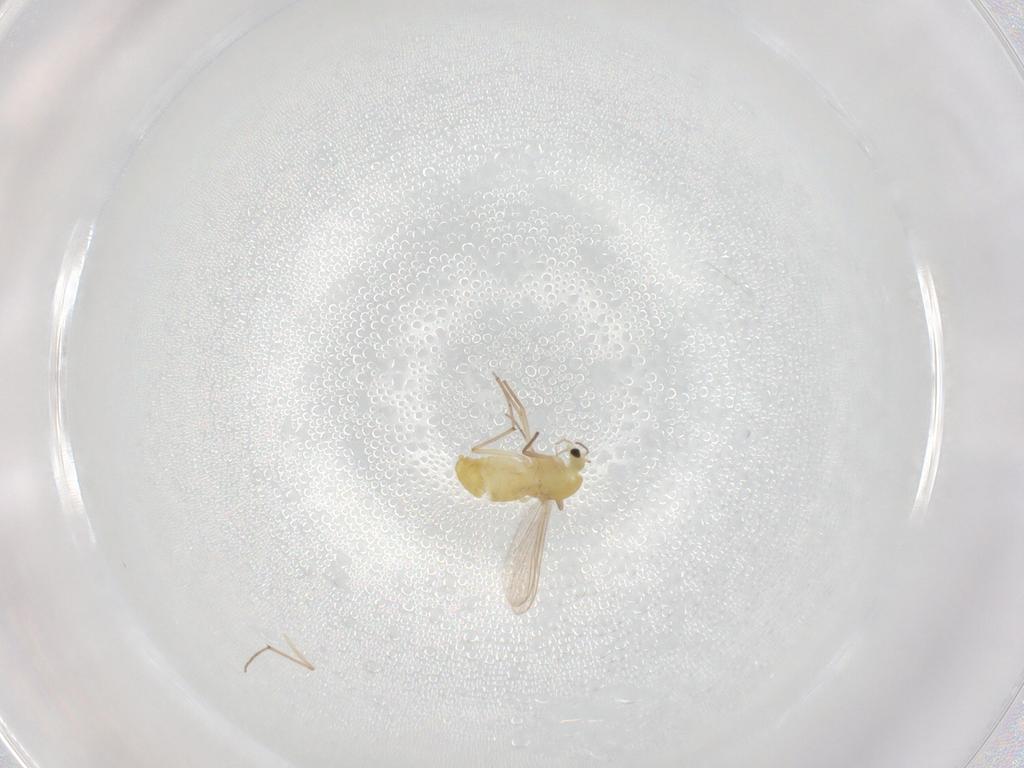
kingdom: Animalia
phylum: Arthropoda
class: Insecta
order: Diptera
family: Chironomidae
